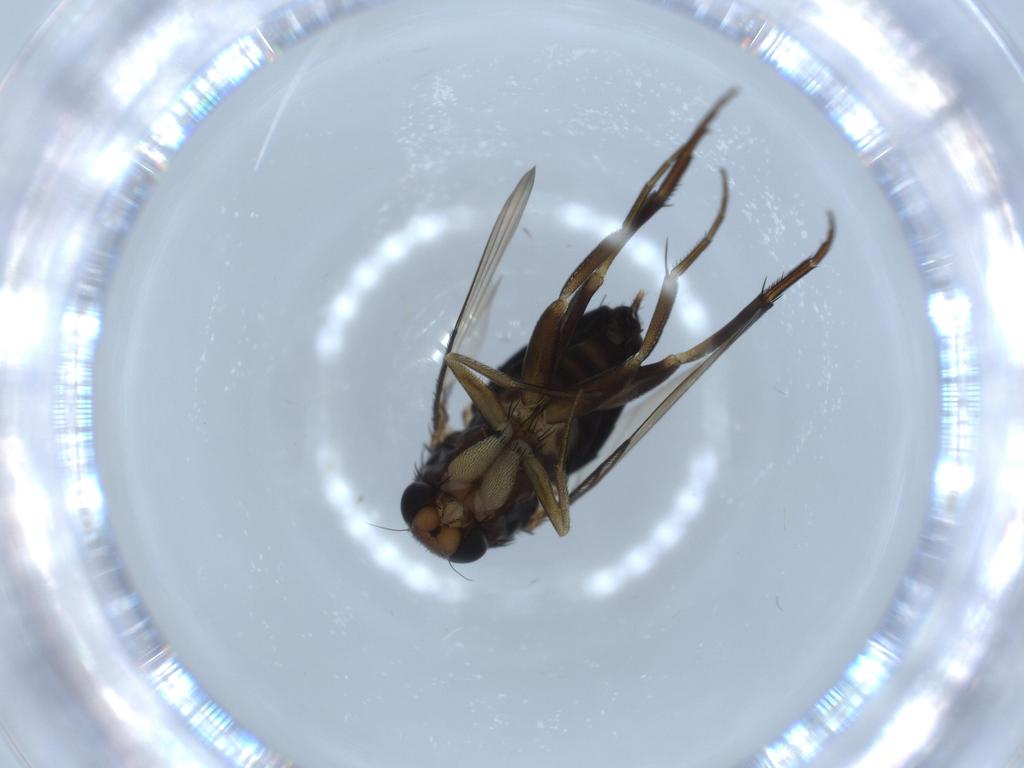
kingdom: Animalia
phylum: Arthropoda
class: Insecta
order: Diptera
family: Phoridae
